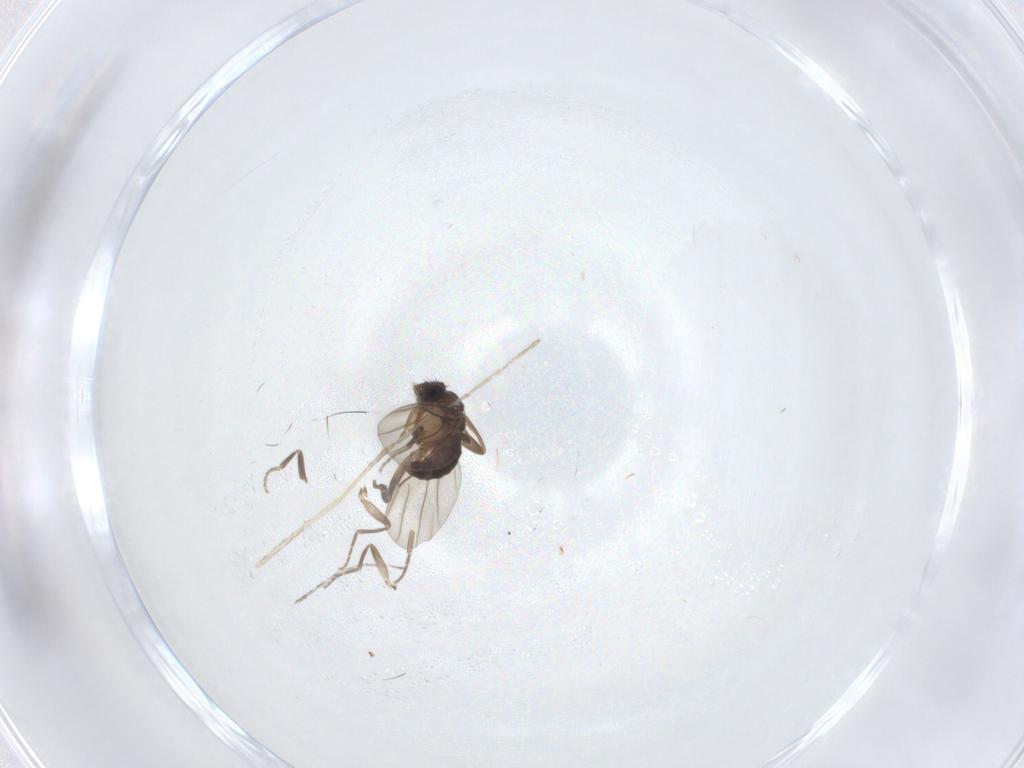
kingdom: Animalia
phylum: Arthropoda
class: Insecta
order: Diptera
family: Phoridae
